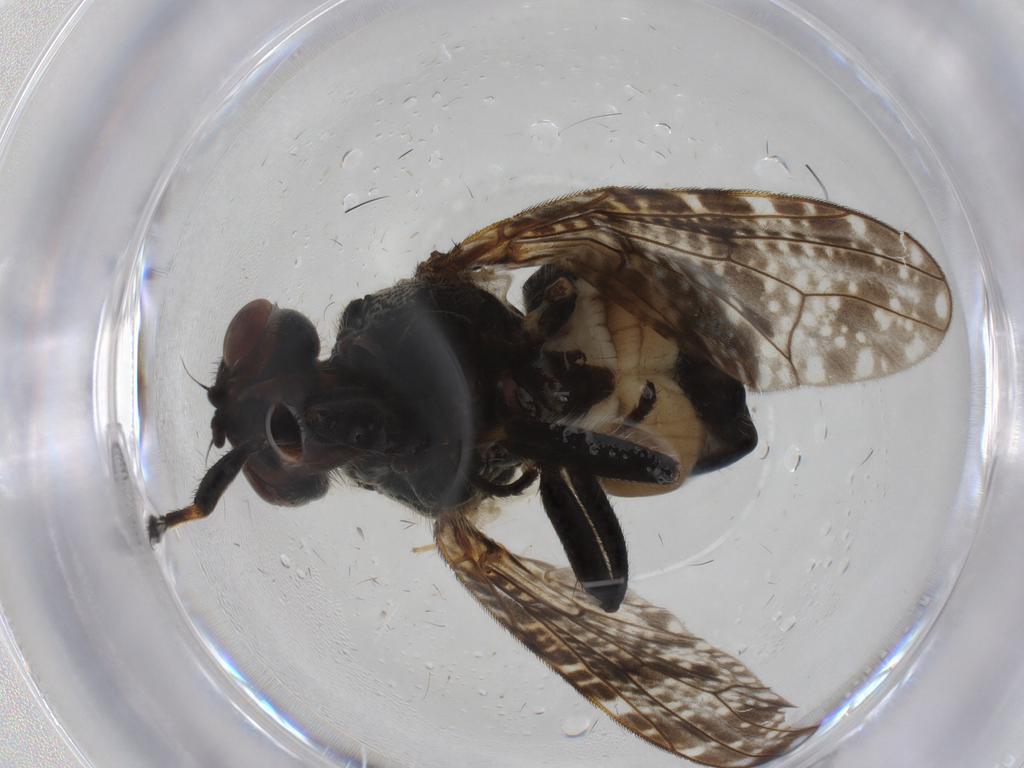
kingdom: Animalia
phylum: Arthropoda
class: Insecta
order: Diptera
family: Platystomatidae
